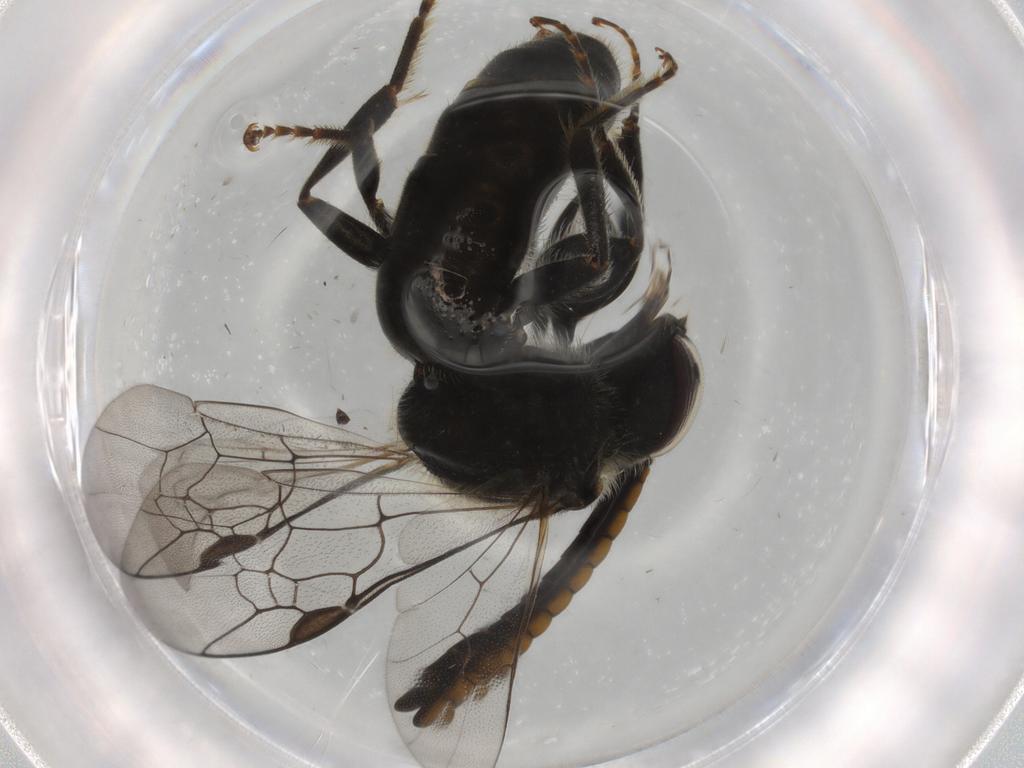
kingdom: Animalia
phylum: Arthropoda
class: Insecta
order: Hymenoptera
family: Halictidae
